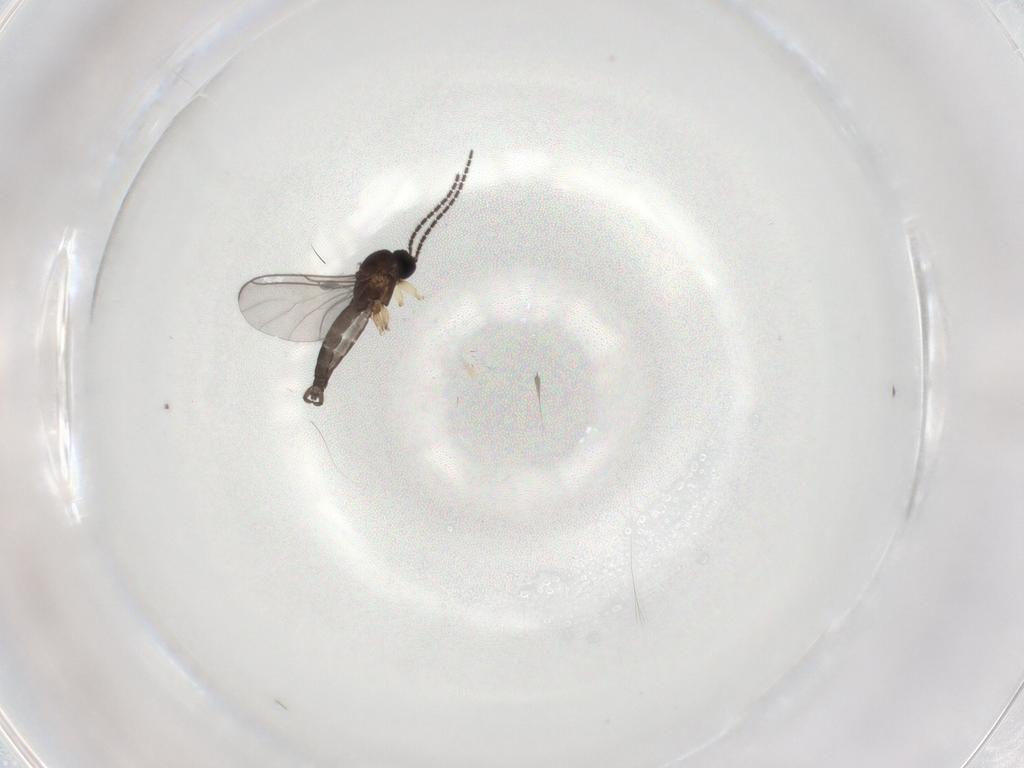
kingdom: Animalia
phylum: Arthropoda
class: Insecta
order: Diptera
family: Sciaridae
